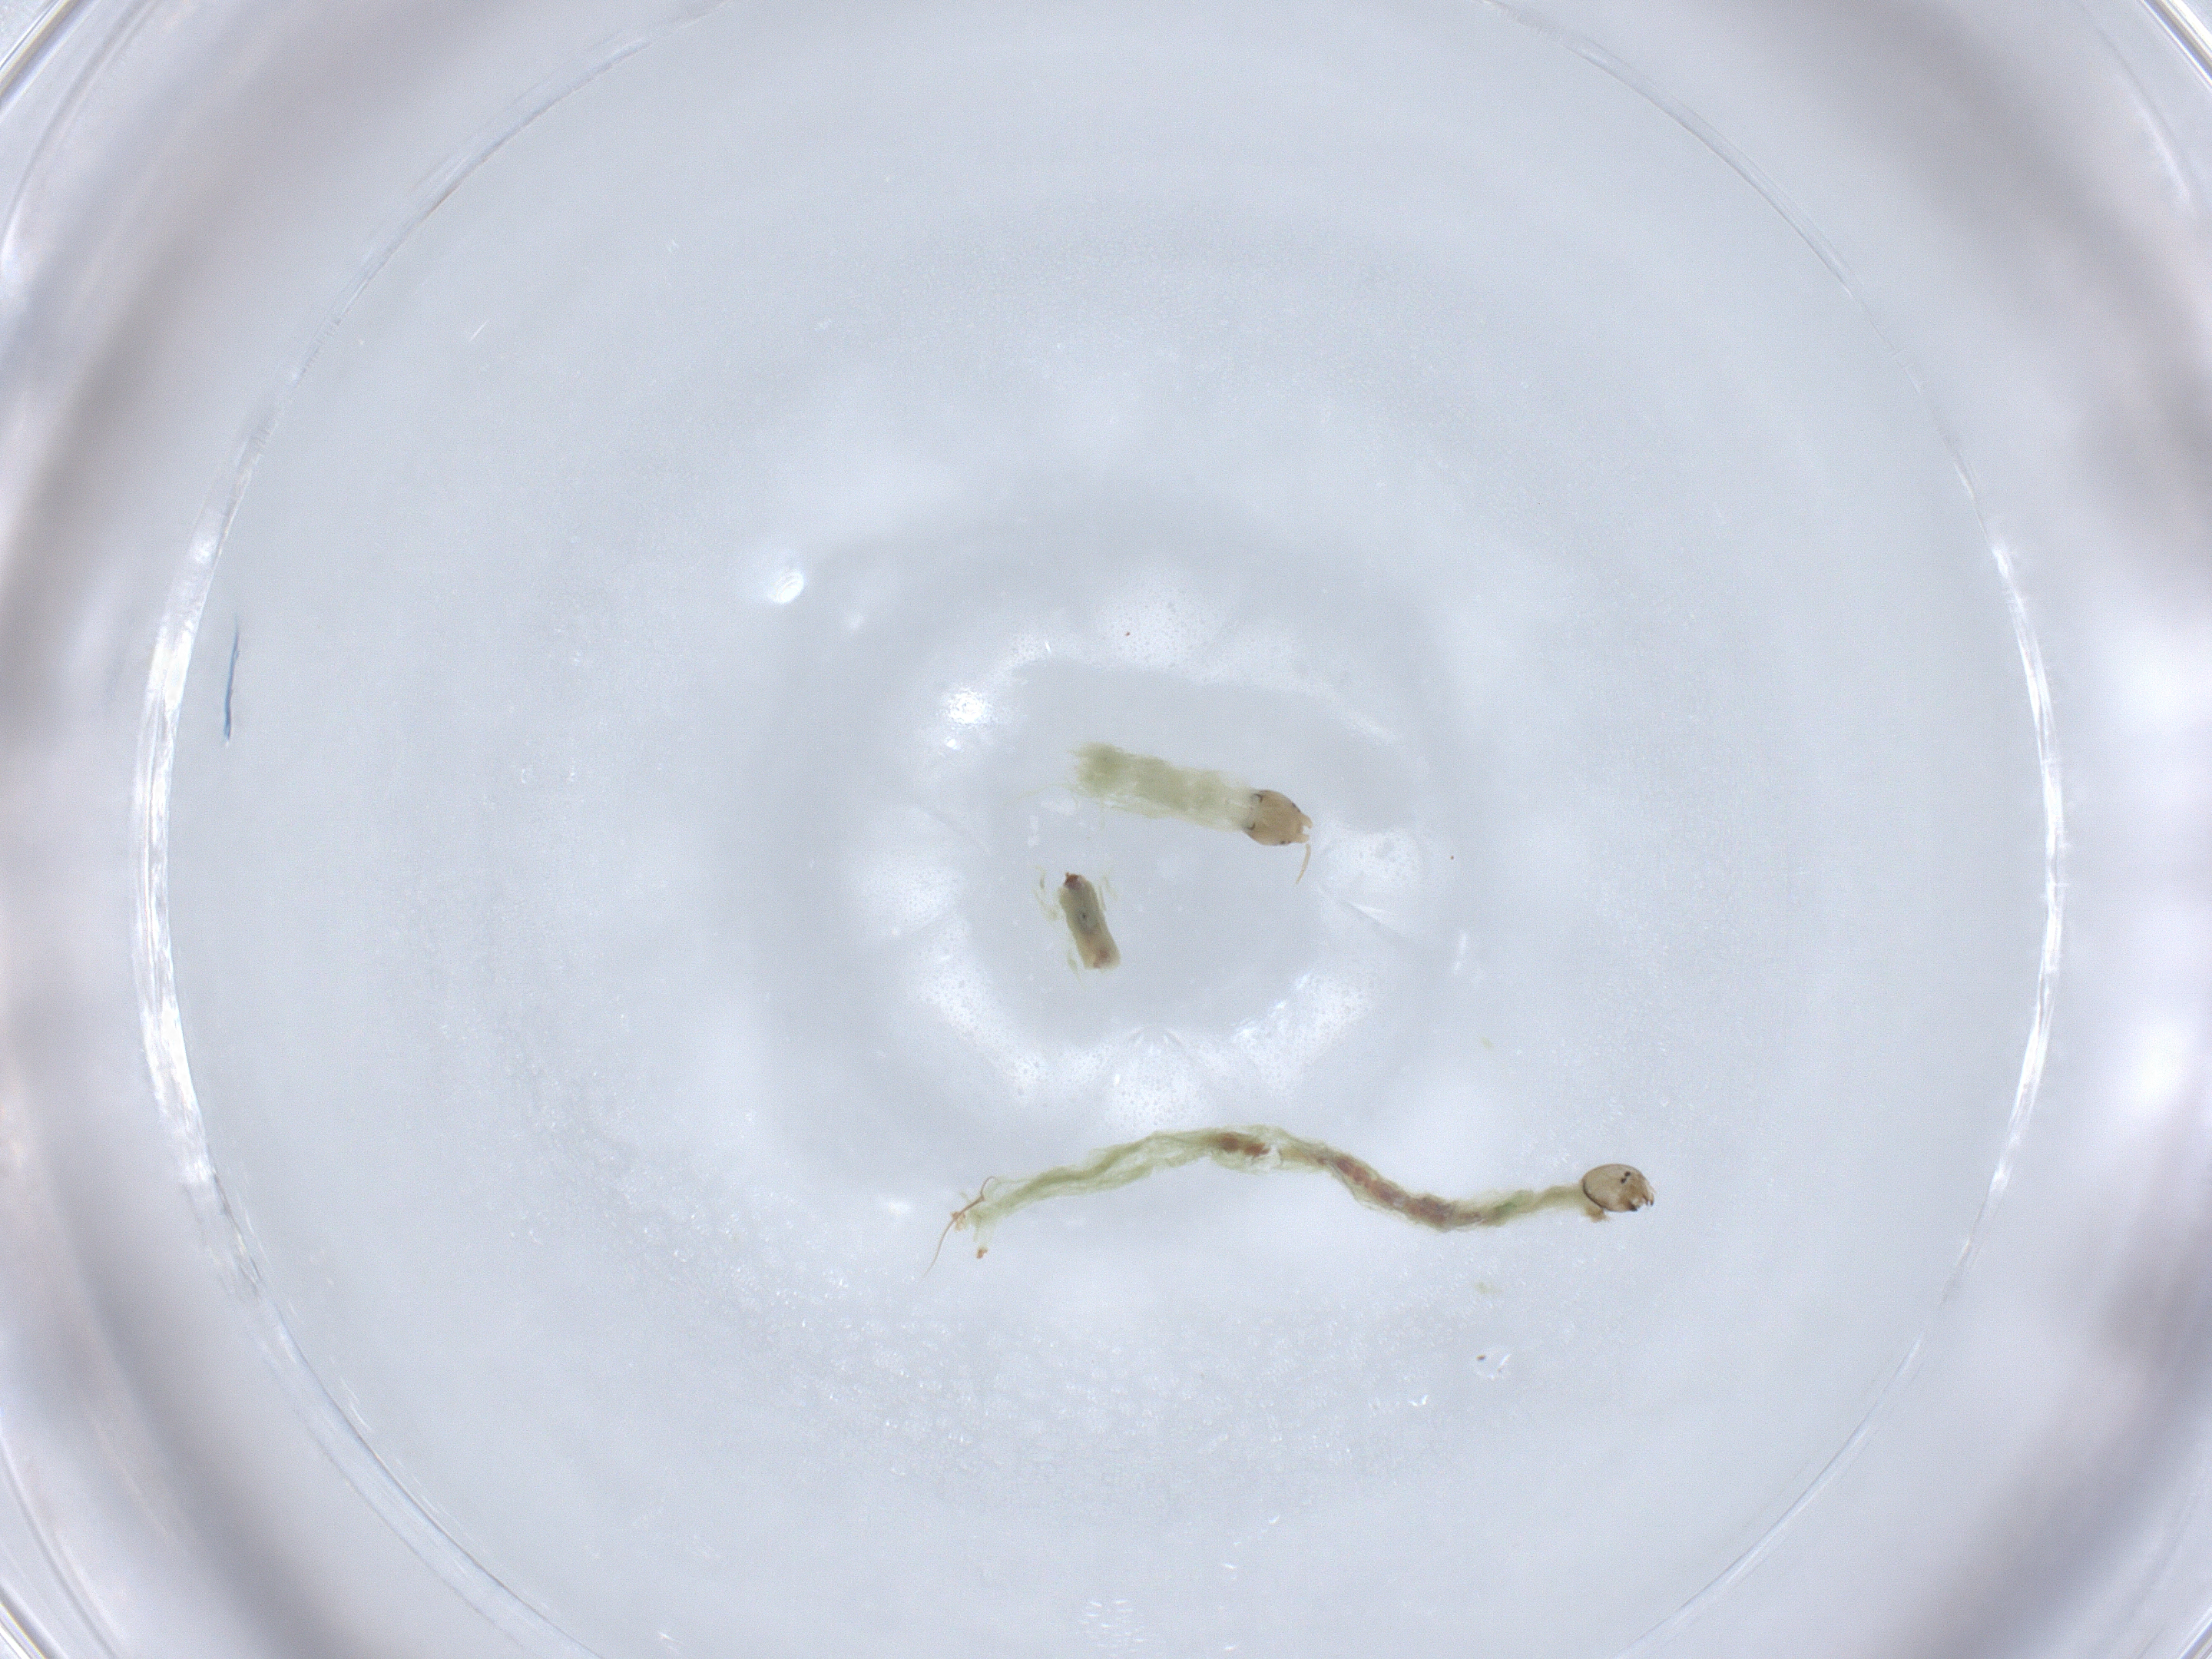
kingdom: Animalia
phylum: Arthropoda
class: Insecta
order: Diptera
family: Chironomidae
